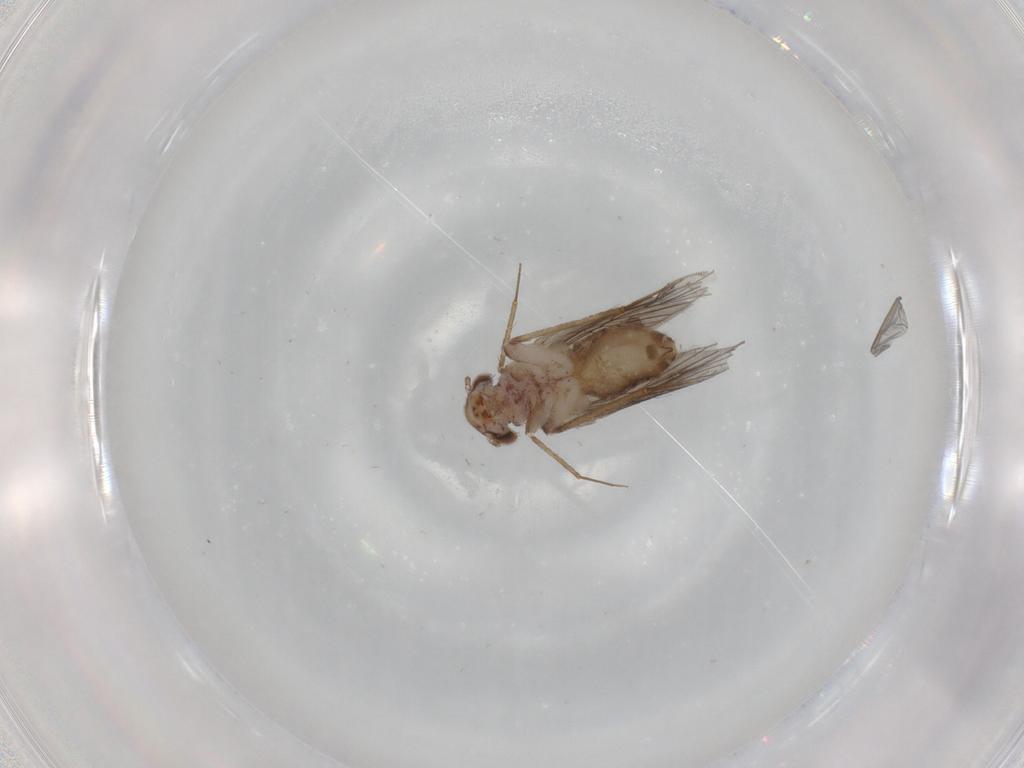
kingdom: Animalia
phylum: Arthropoda
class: Insecta
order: Psocodea
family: Lepidopsocidae
